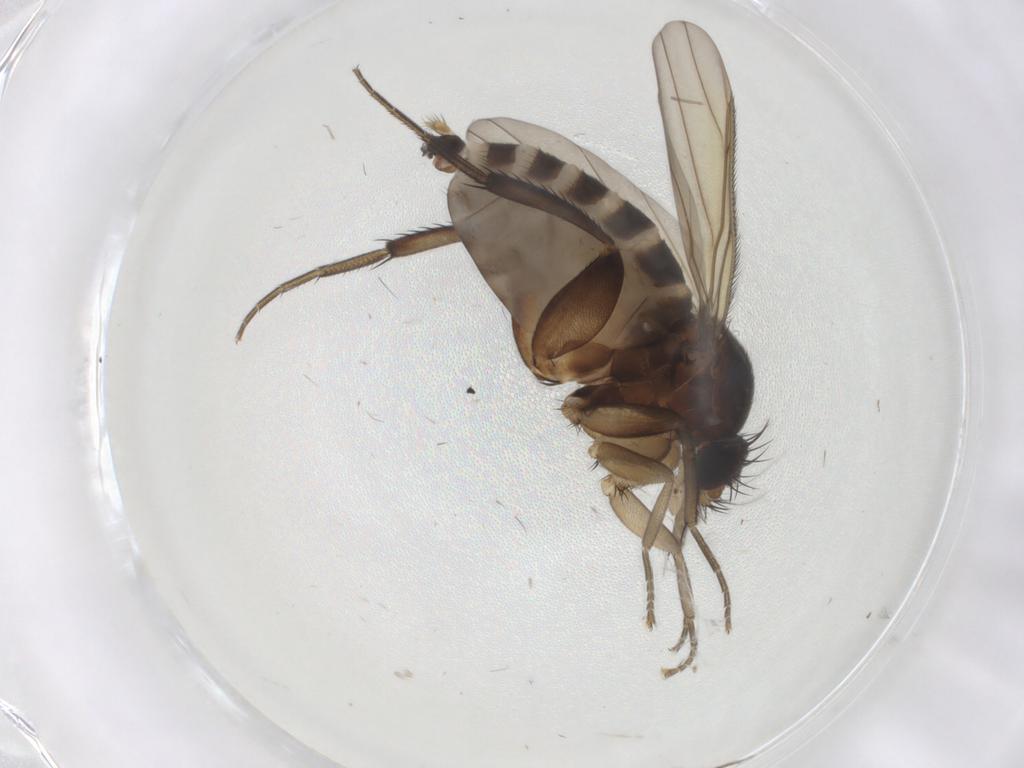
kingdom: Animalia
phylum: Arthropoda
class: Insecta
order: Diptera
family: Phoridae
